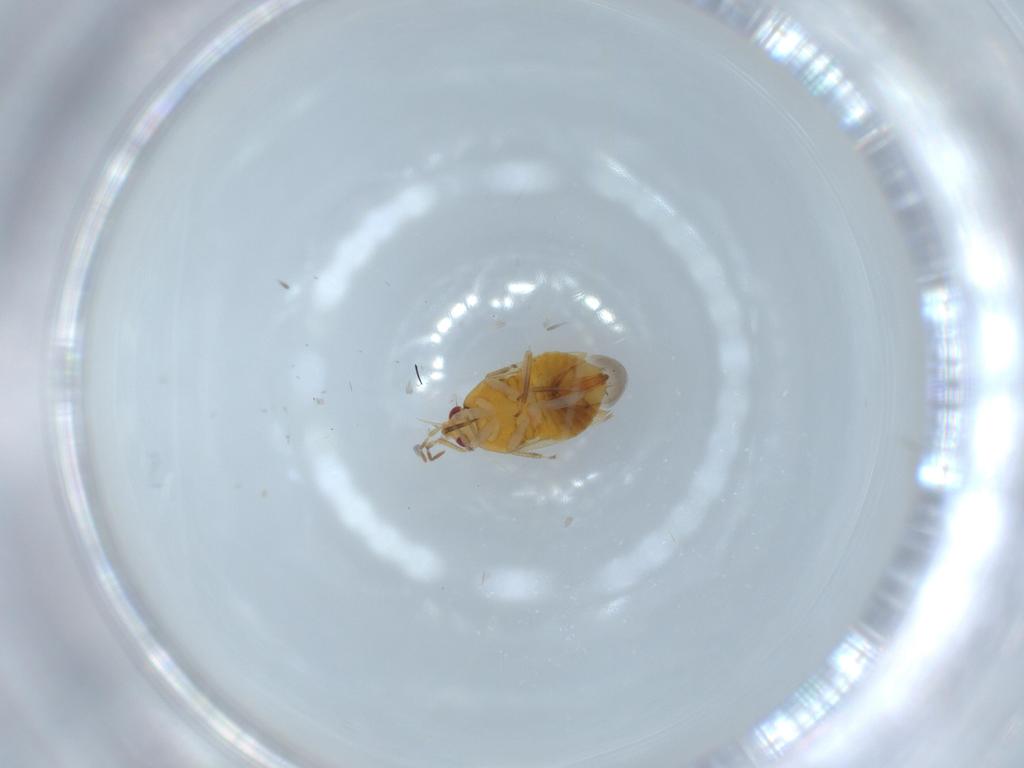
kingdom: Animalia
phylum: Arthropoda
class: Insecta
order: Hemiptera
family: Anthocoridae
